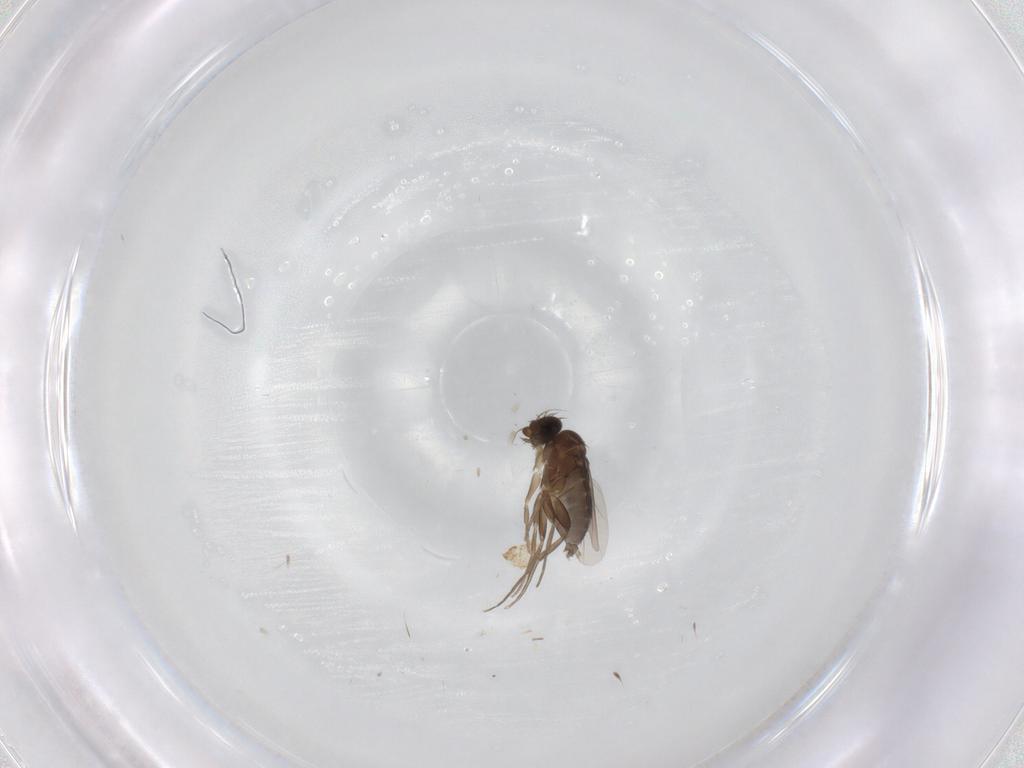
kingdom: Animalia
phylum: Arthropoda
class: Insecta
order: Diptera
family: Phoridae
